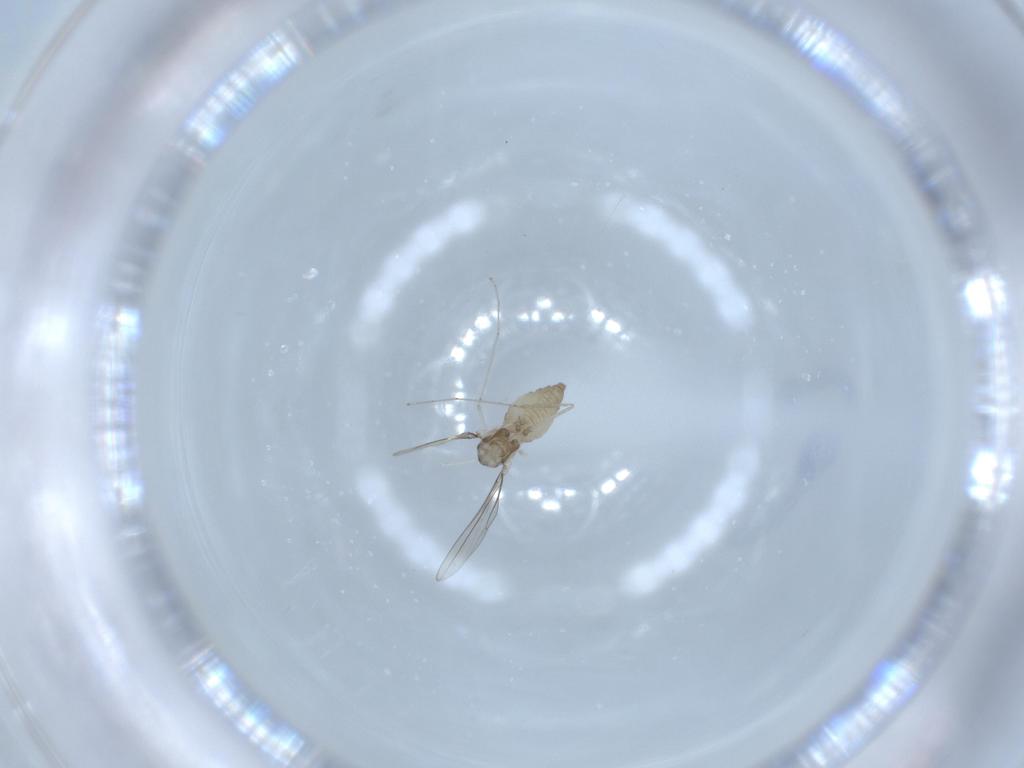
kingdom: Animalia
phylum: Arthropoda
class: Insecta
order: Diptera
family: Cecidomyiidae
